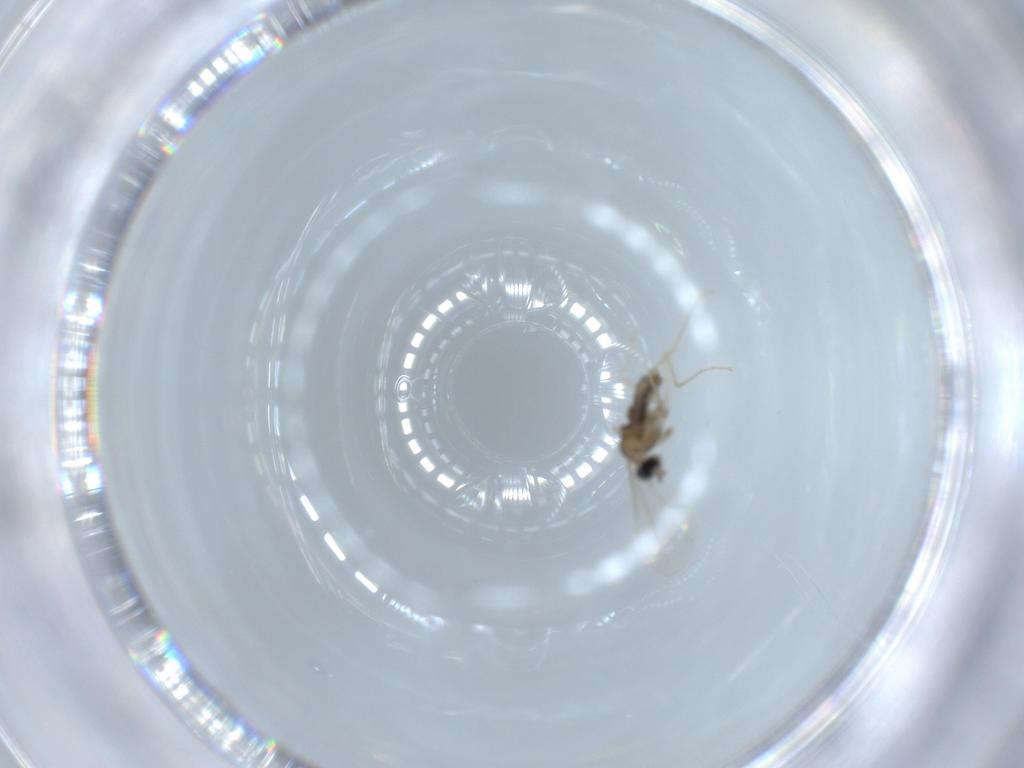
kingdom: Animalia
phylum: Arthropoda
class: Insecta
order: Diptera
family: Cecidomyiidae
